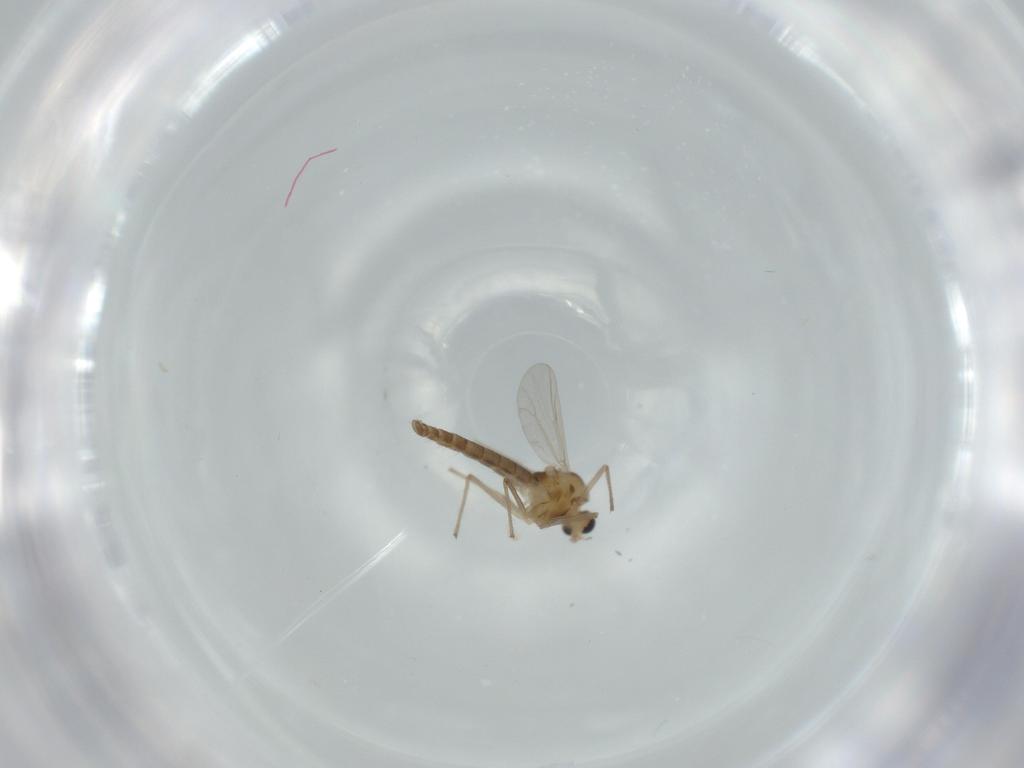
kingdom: Animalia
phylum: Arthropoda
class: Insecta
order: Diptera
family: Chironomidae
